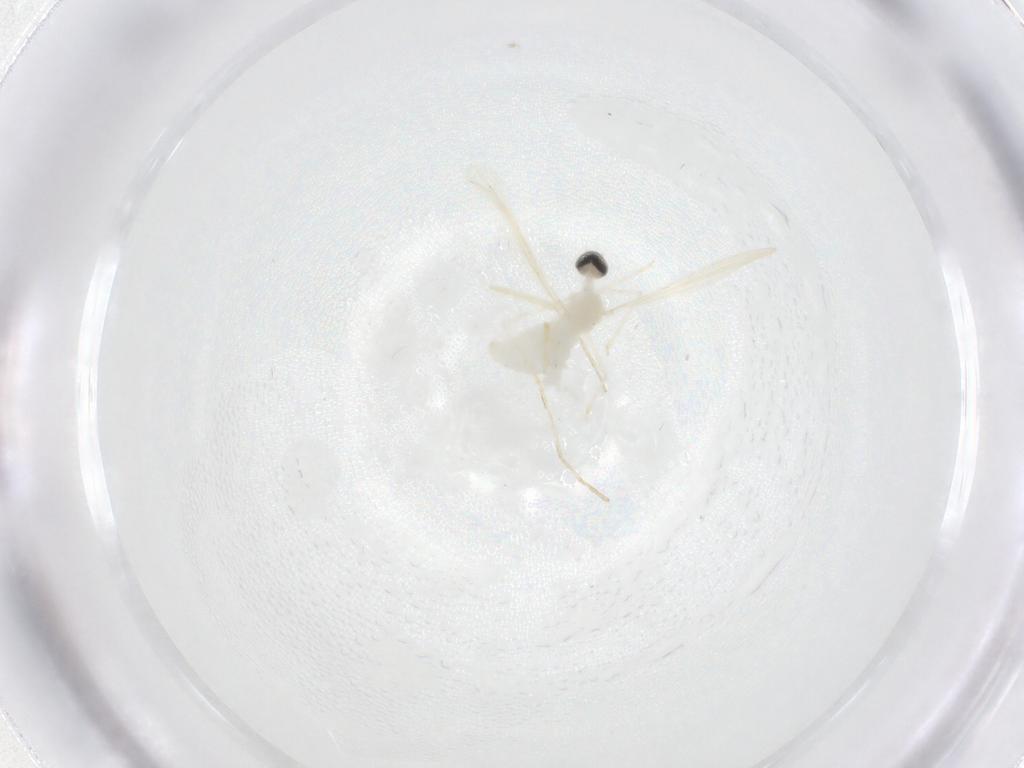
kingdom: Animalia
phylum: Arthropoda
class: Insecta
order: Diptera
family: Cecidomyiidae
